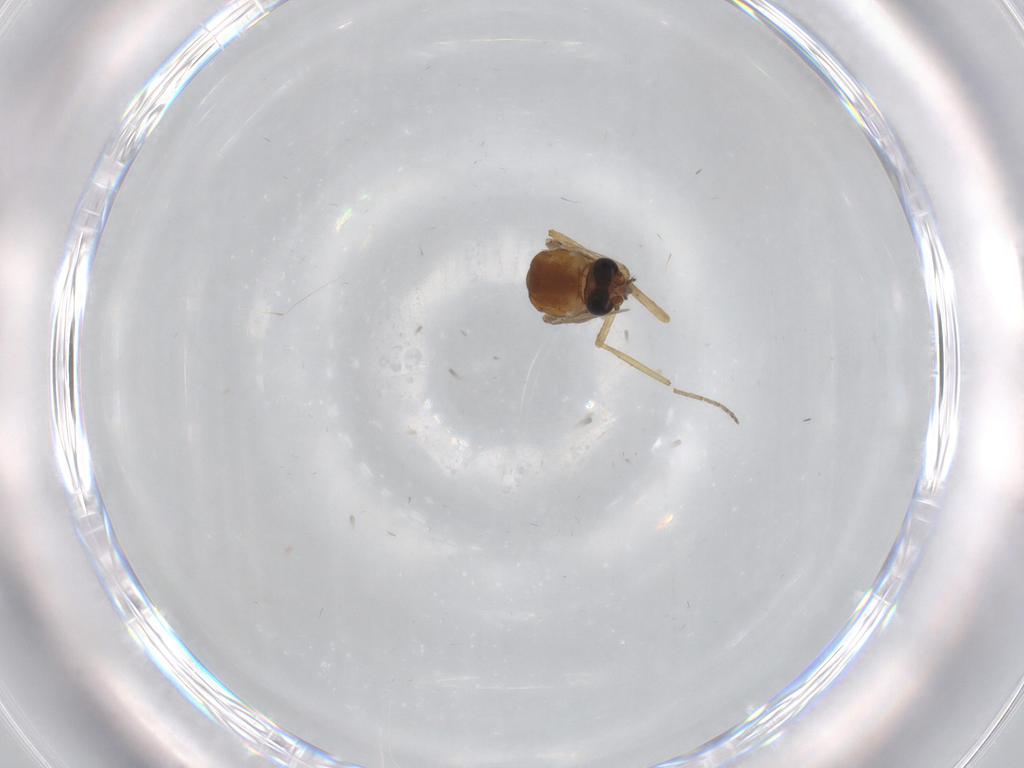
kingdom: Animalia
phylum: Arthropoda
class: Insecta
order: Diptera
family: Ceratopogonidae
